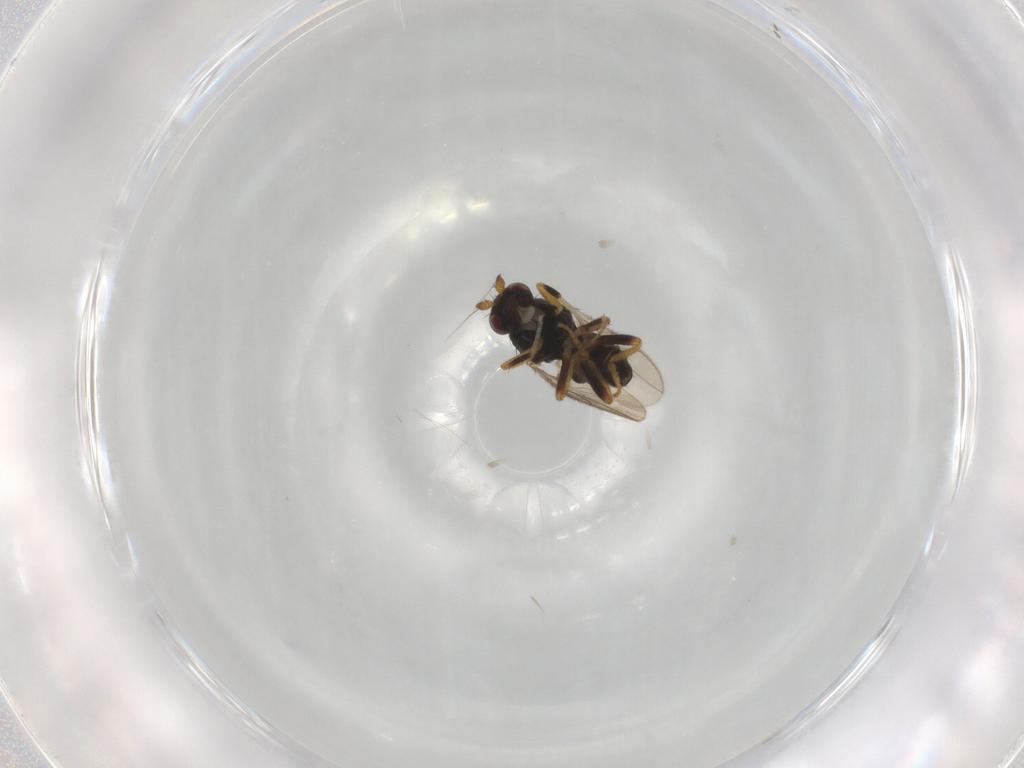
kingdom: Animalia
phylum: Arthropoda
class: Insecta
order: Diptera
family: Sphaeroceridae
